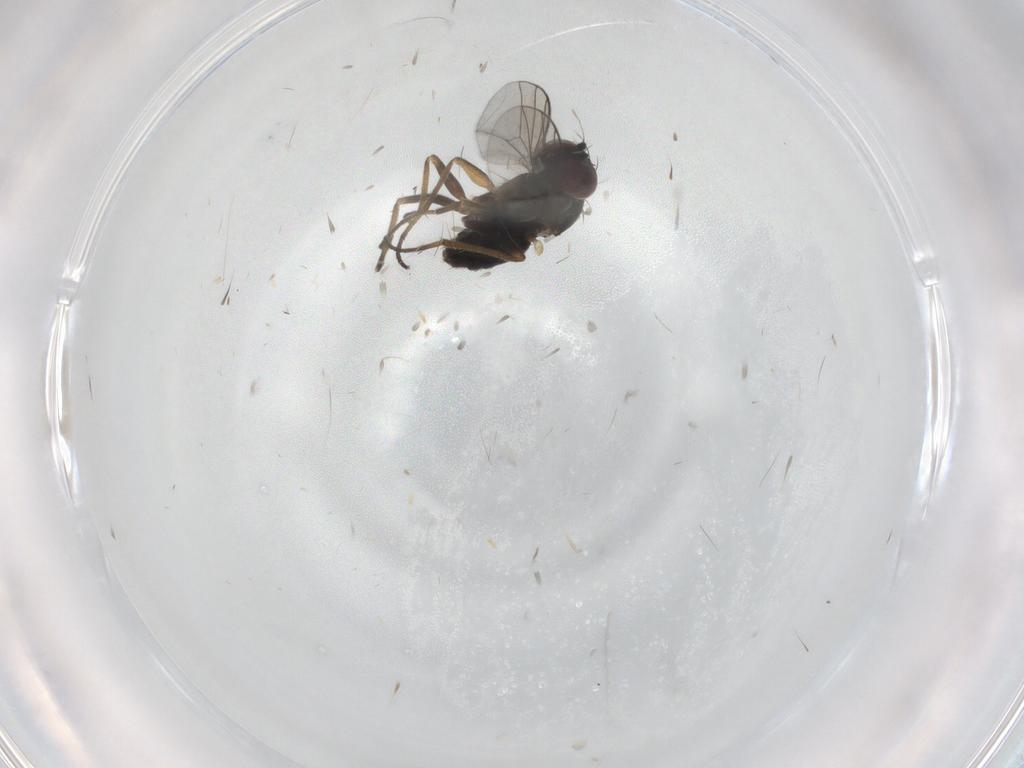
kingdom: Animalia
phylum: Arthropoda
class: Insecta
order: Diptera
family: Dolichopodidae
